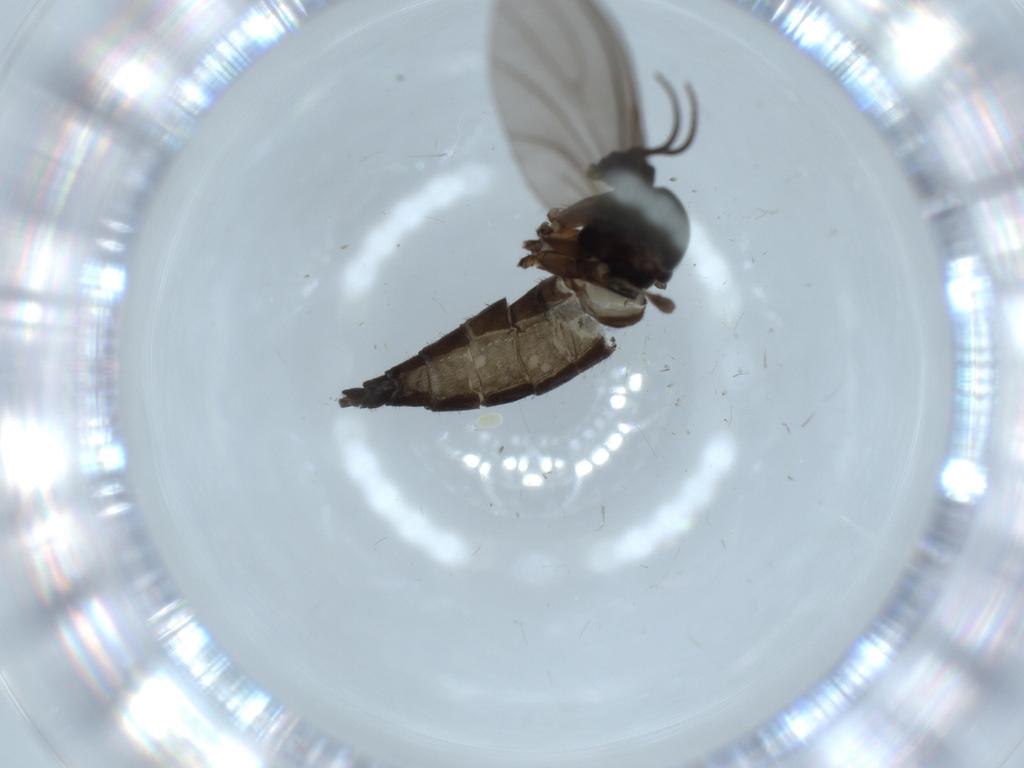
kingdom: Animalia
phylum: Arthropoda
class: Insecta
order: Diptera
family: Sciaridae
